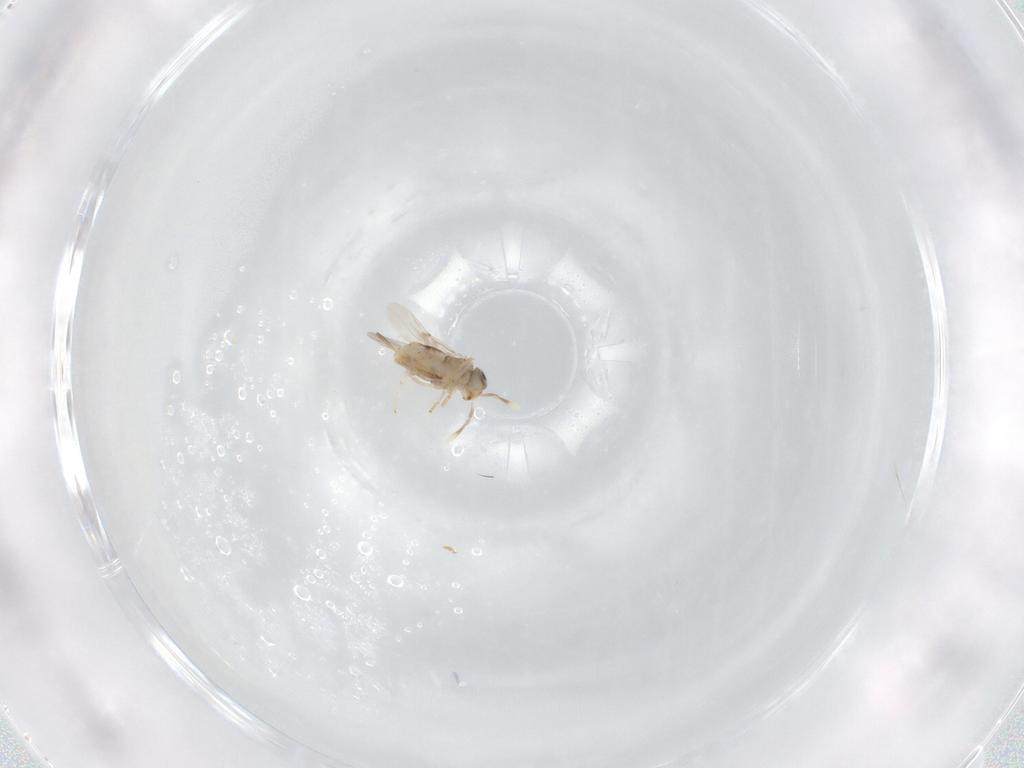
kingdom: Animalia
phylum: Arthropoda
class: Insecta
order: Hymenoptera
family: Encyrtidae
